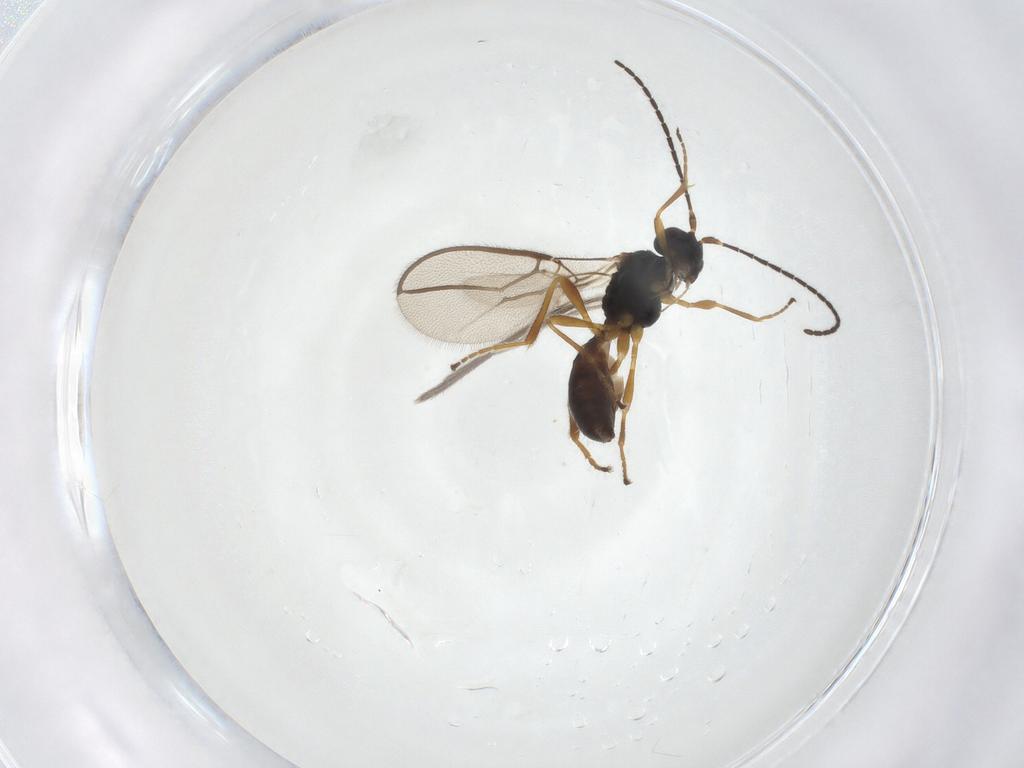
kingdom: Animalia
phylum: Arthropoda
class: Insecta
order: Hymenoptera
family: Braconidae
